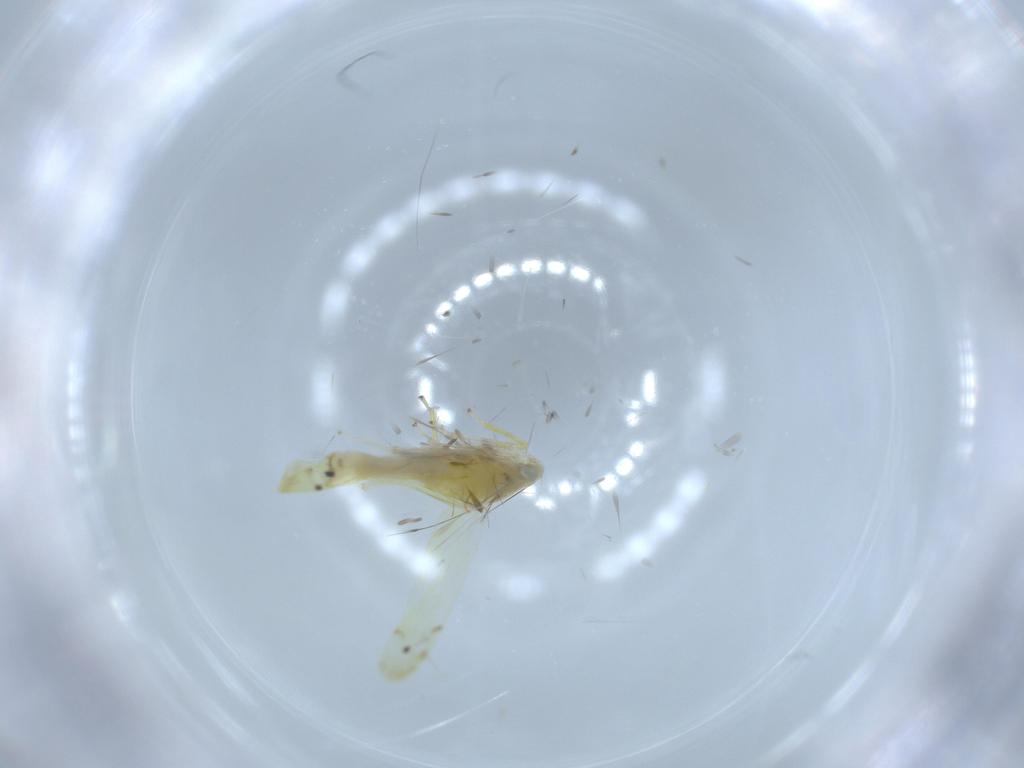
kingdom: Animalia
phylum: Arthropoda
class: Insecta
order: Hemiptera
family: Cicadellidae
